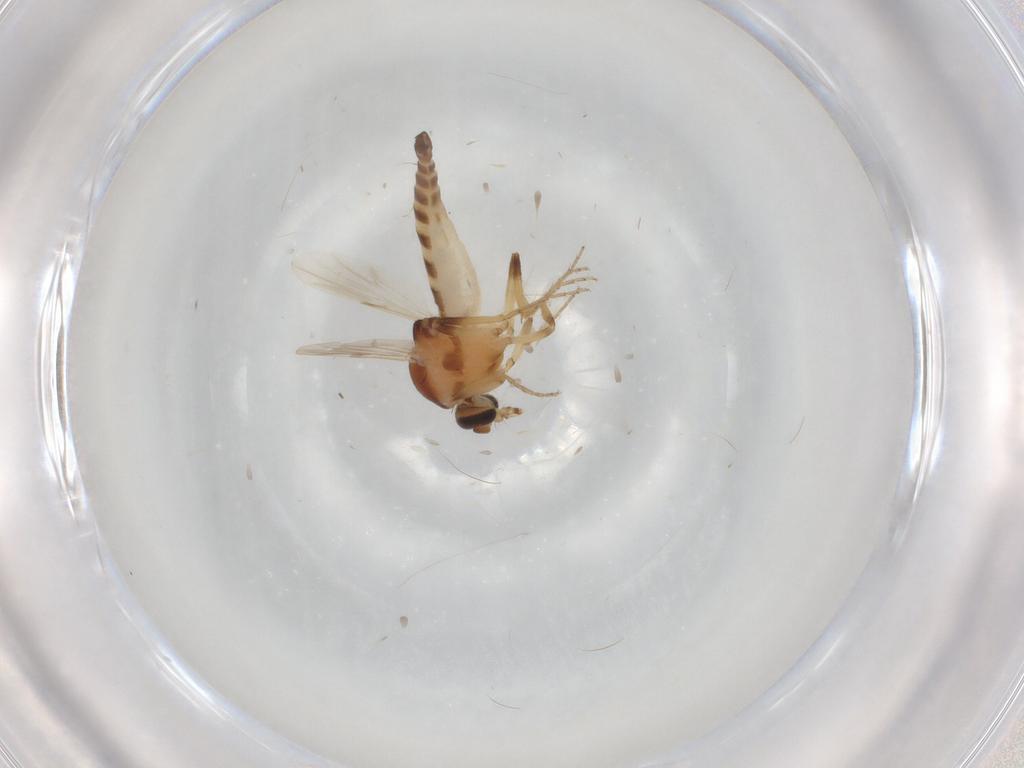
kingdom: Animalia
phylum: Arthropoda
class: Insecta
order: Diptera
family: Ceratopogonidae
